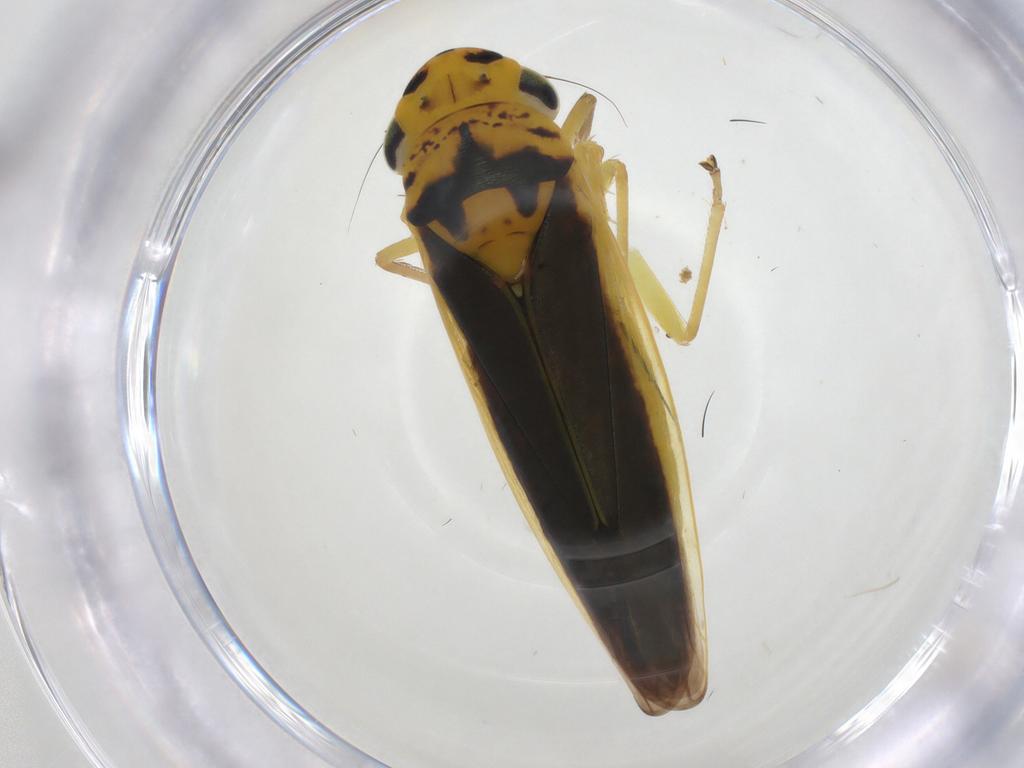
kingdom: Animalia
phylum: Arthropoda
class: Insecta
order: Hemiptera
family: Cicadellidae
